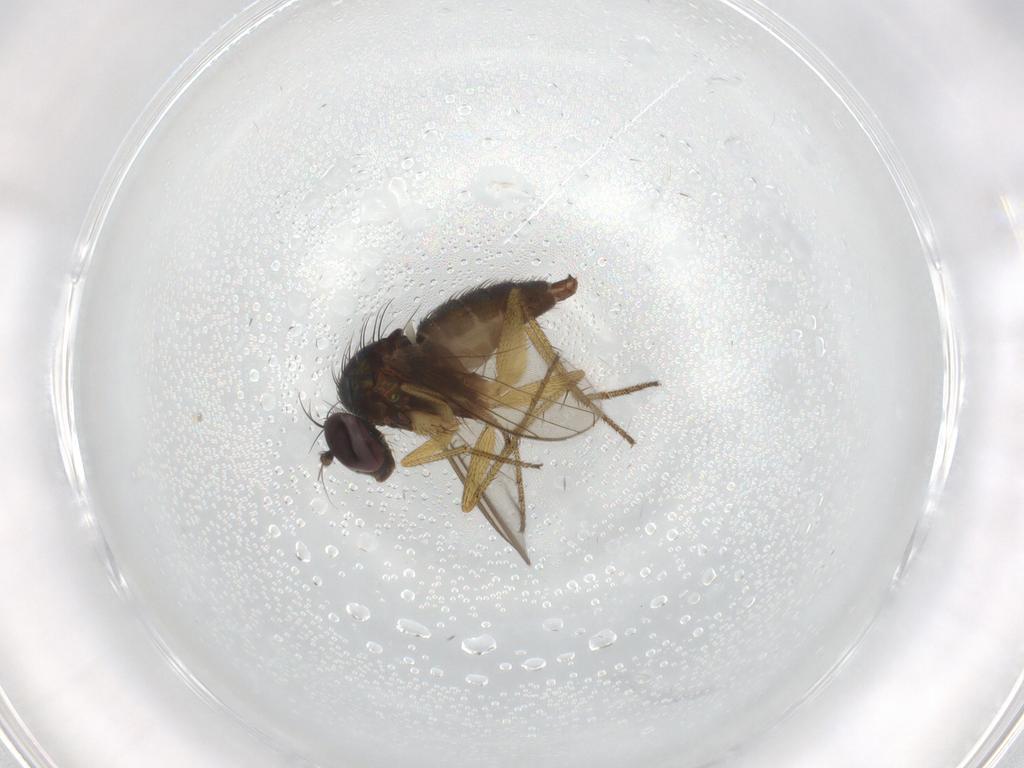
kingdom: Animalia
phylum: Arthropoda
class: Insecta
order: Diptera
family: Dolichopodidae
